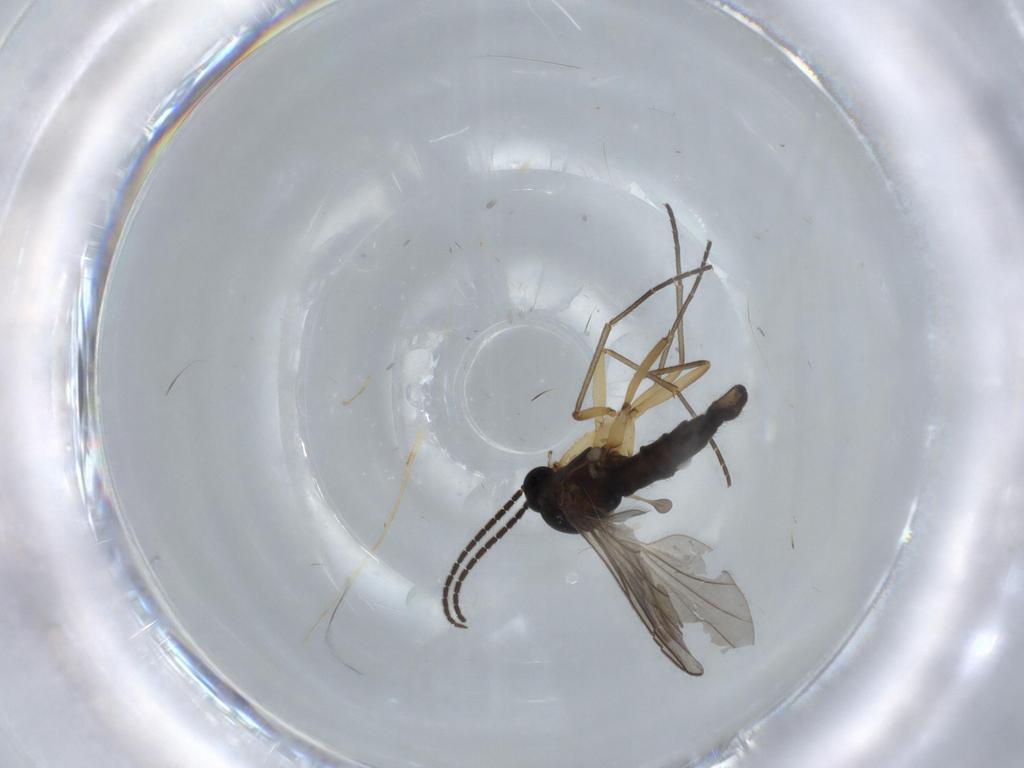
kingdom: Animalia
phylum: Arthropoda
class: Insecta
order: Diptera
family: Sciaridae
